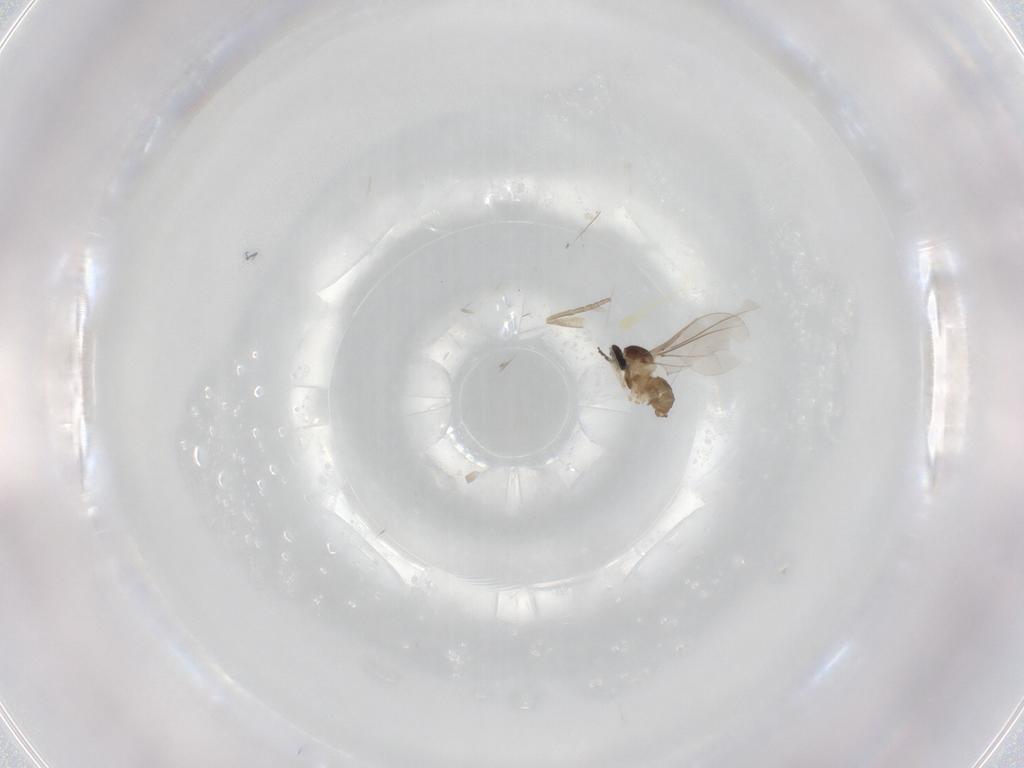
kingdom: Animalia
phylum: Arthropoda
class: Insecta
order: Diptera
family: Cecidomyiidae
